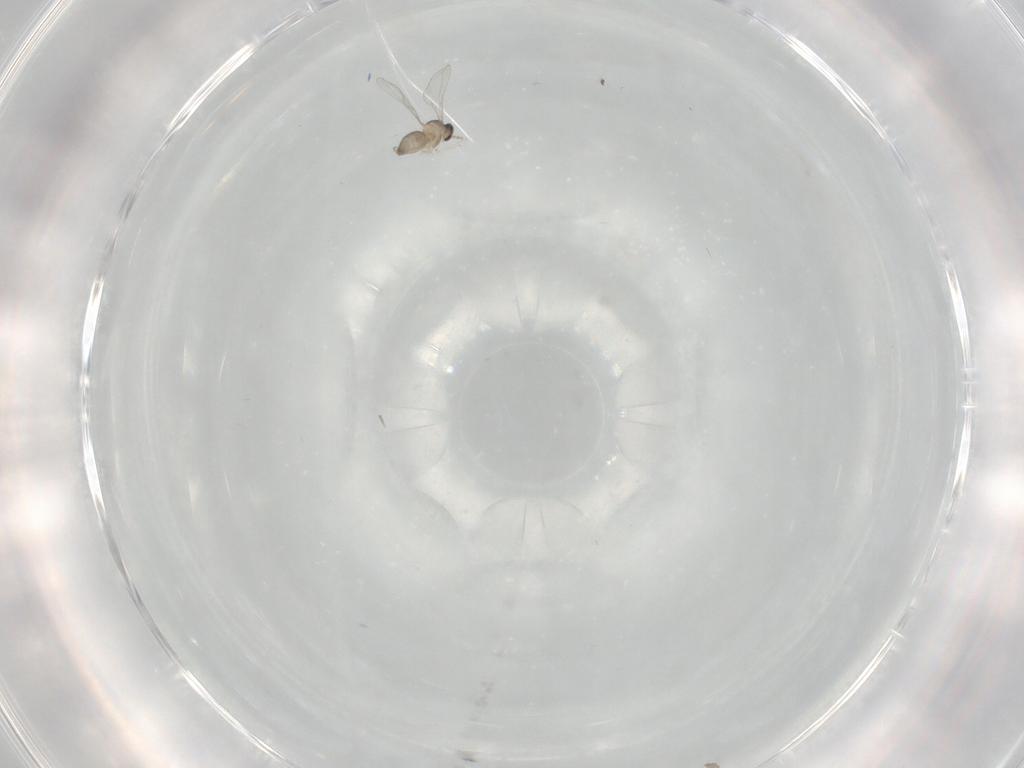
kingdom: Animalia
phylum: Arthropoda
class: Insecta
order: Diptera
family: Cecidomyiidae
